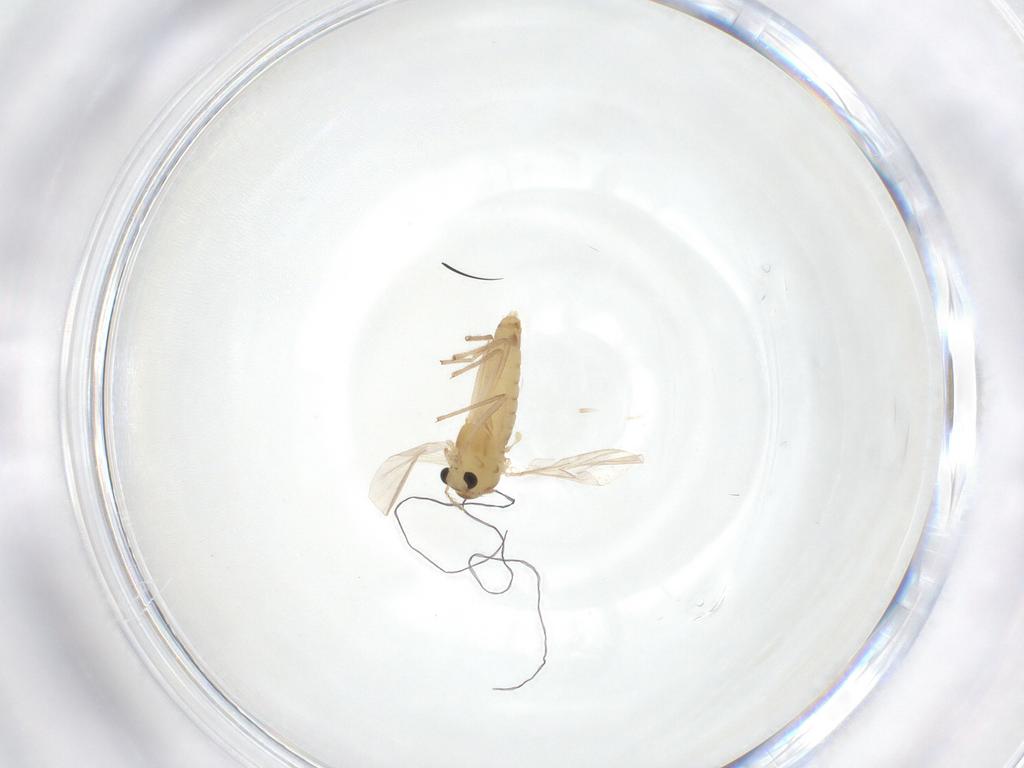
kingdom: Animalia
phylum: Arthropoda
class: Insecta
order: Diptera
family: Chironomidae
